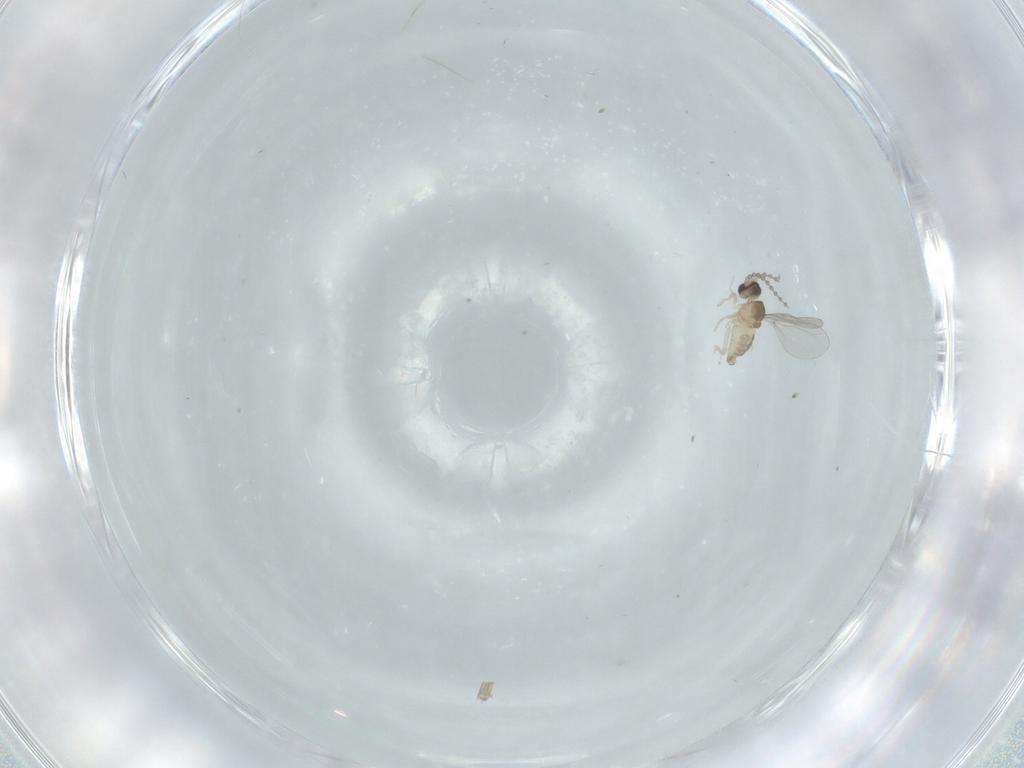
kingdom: Animalia
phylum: Arthropoda
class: Insecta
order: Diptera
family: Cecidomyiidae
